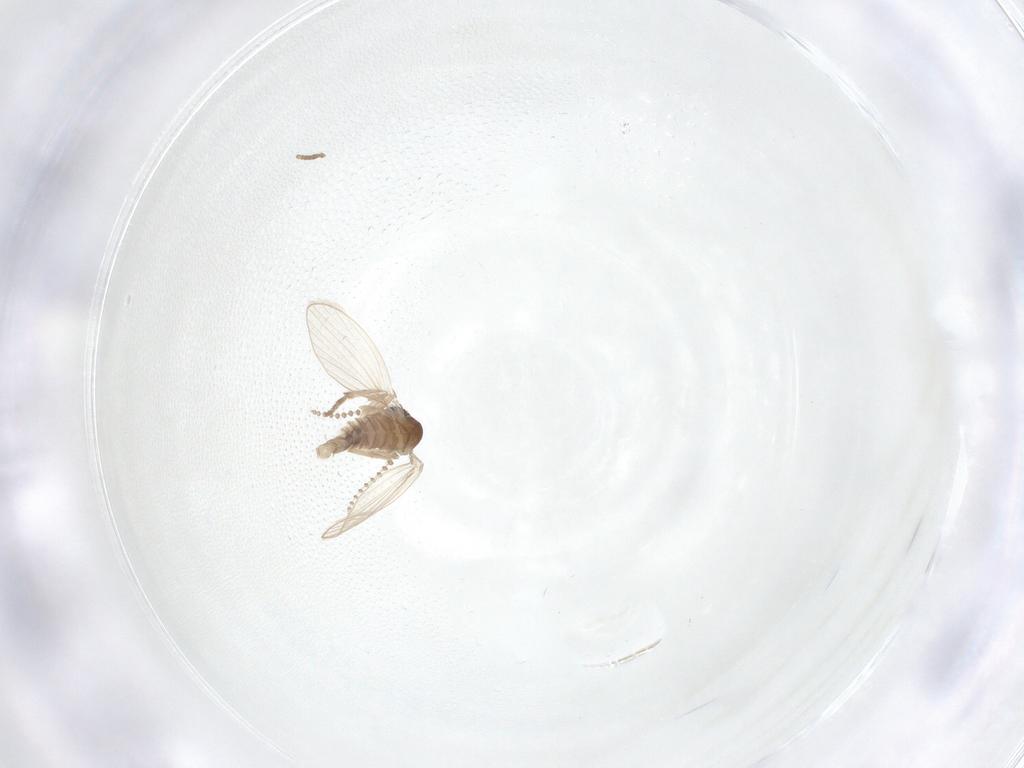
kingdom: Animalia
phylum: Arthropoda
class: Insecta
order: Diptera
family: Psychodidae
